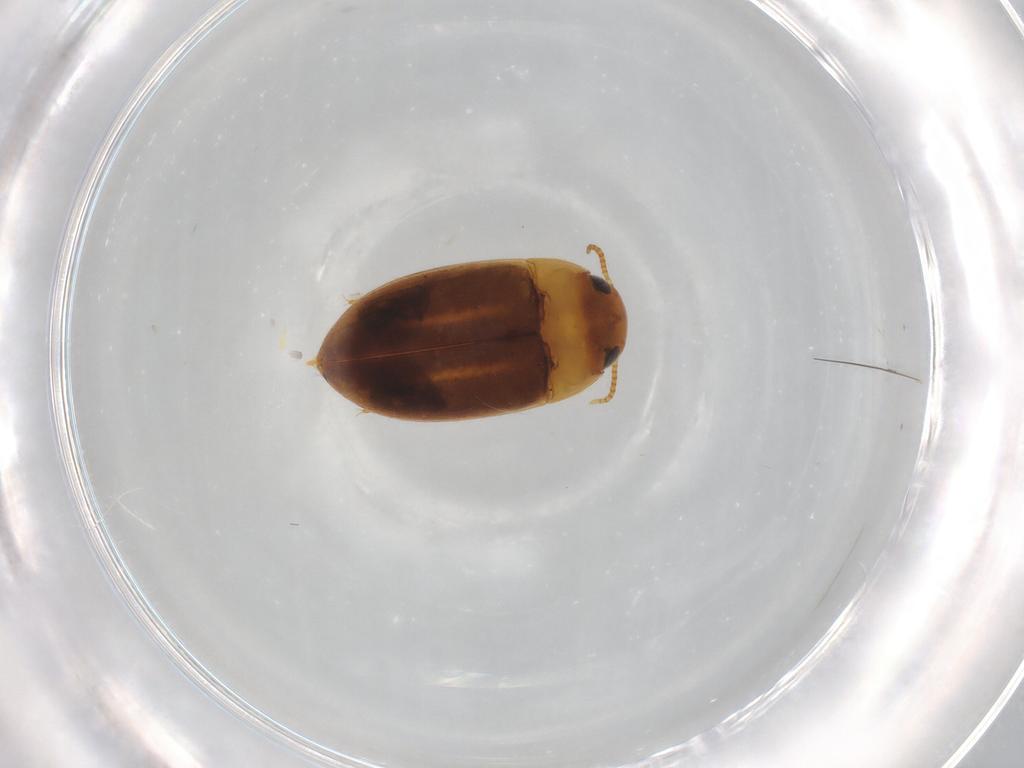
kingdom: Animalia
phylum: Arthropoda
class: Insecta
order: Coleoptera
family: Noteridae
